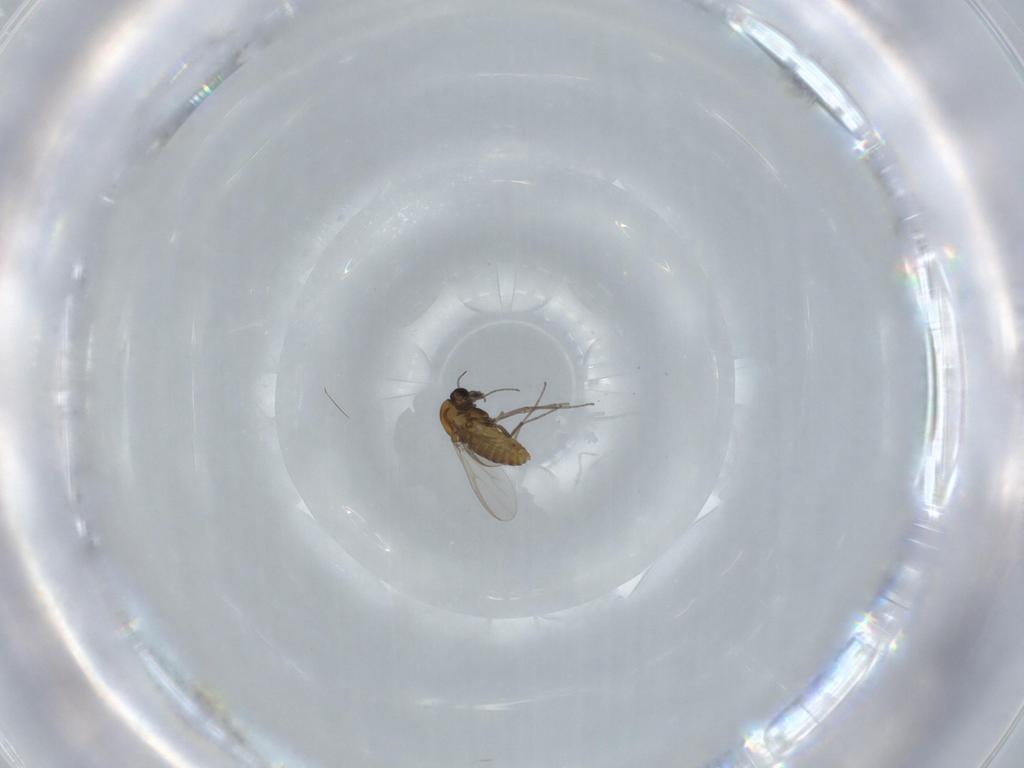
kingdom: Animalia
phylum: Arthropoda
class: Insecta
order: Diptera
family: Chironomidae
